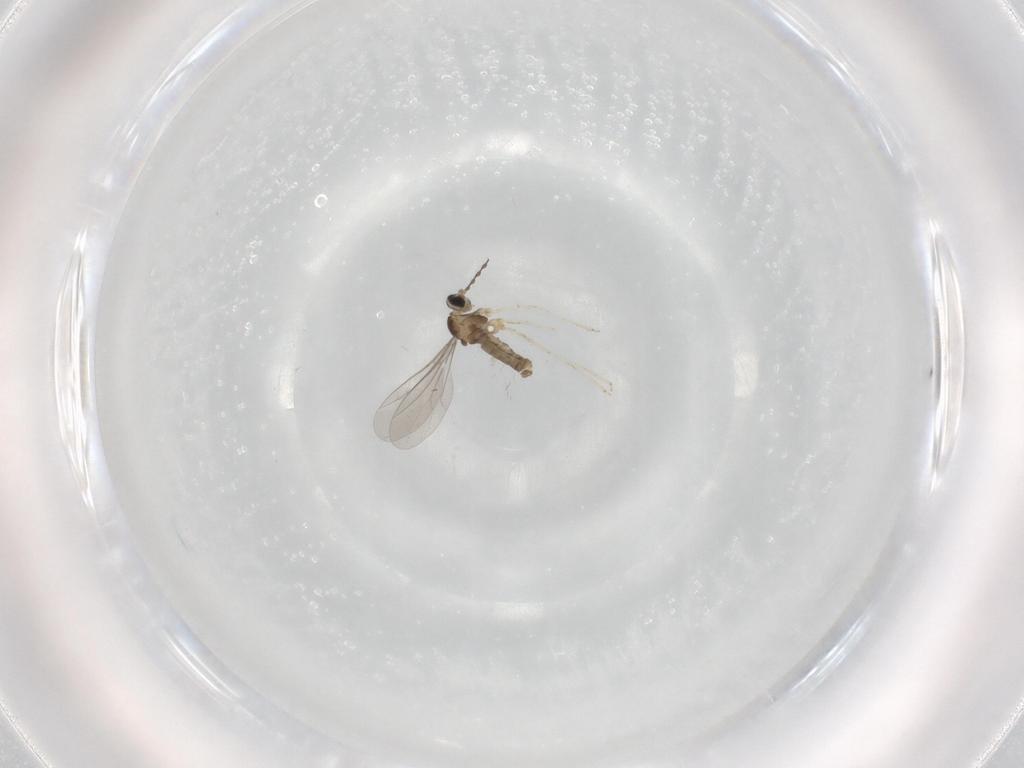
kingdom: Animalia
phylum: Arthropoda
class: Insecta
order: Diptera
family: Cecidomyiidae
